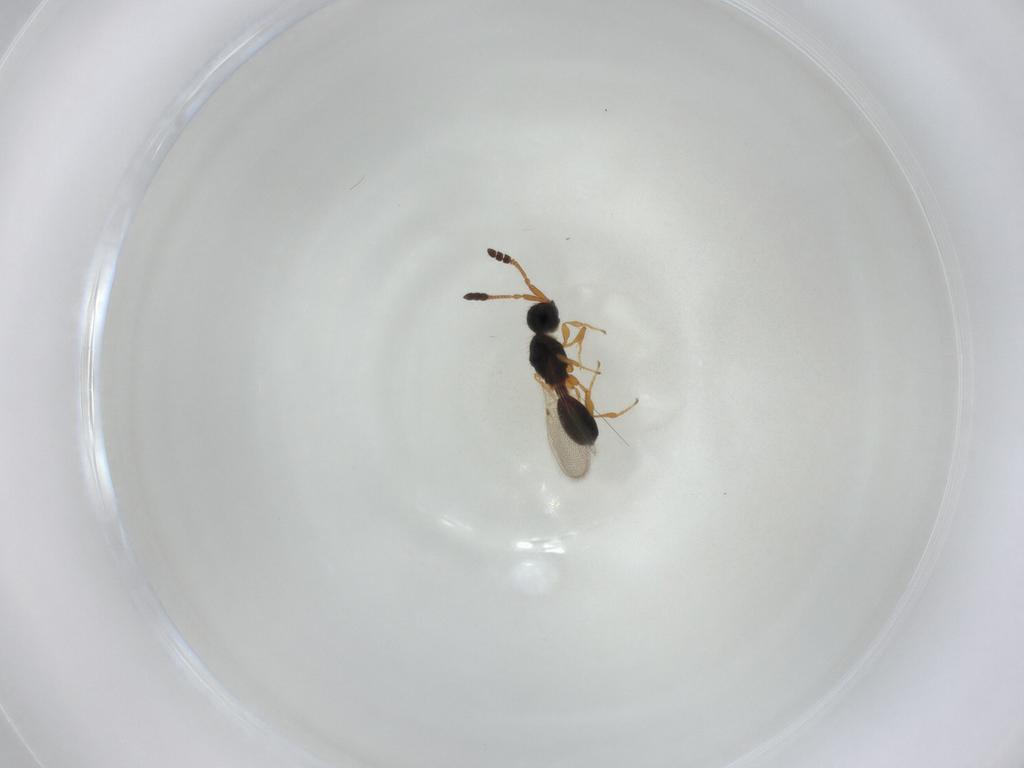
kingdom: Animalia
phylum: Arthropoda
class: Insecta
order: Hymenoptera
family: Diapriidae
